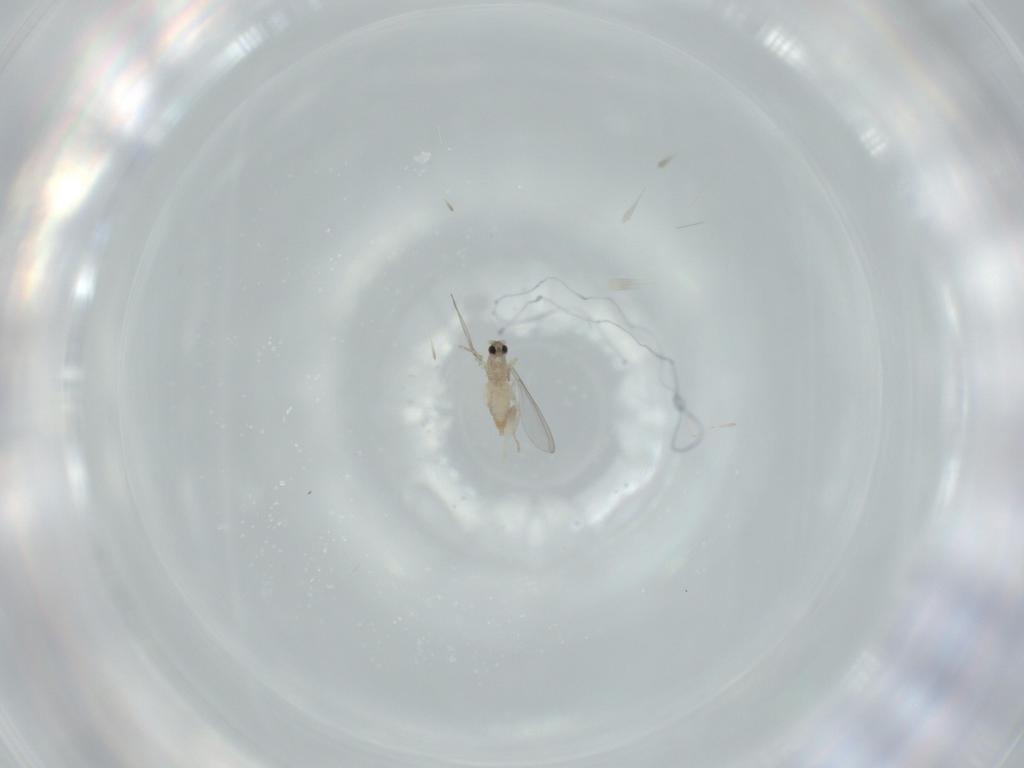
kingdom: Animalia
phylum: Arthropoda
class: Insecta
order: Diptera
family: Cecidomyiidae
